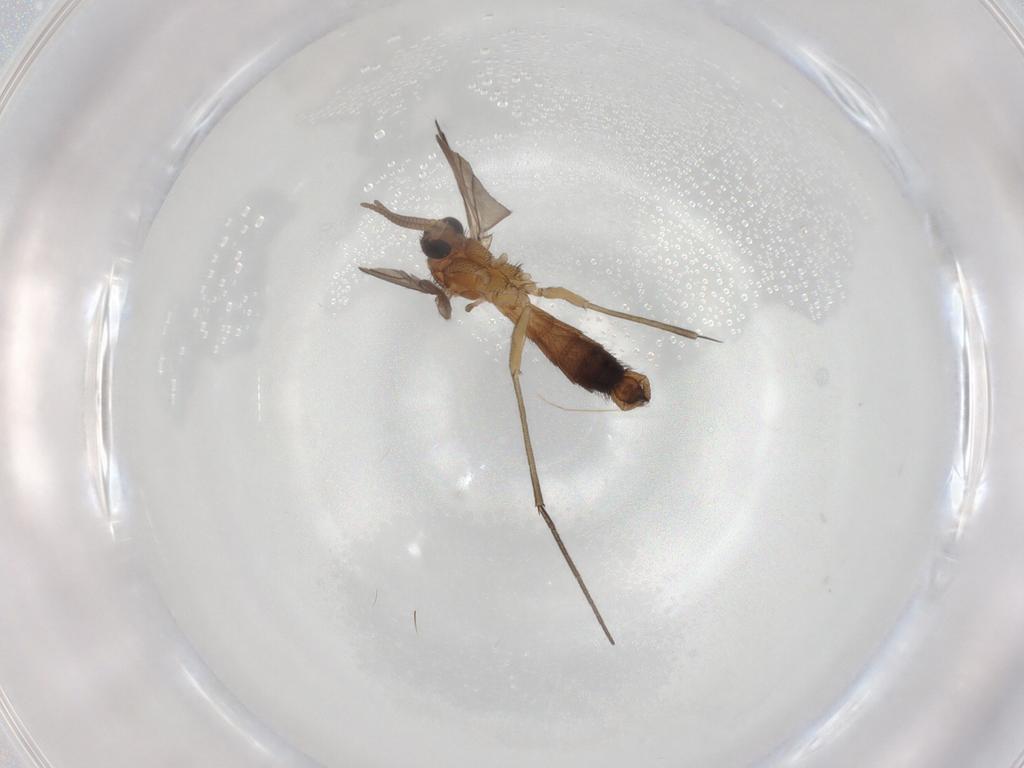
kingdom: Animalia
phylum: Arthropoda
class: Insecta
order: Diptera
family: Keroplatidae
